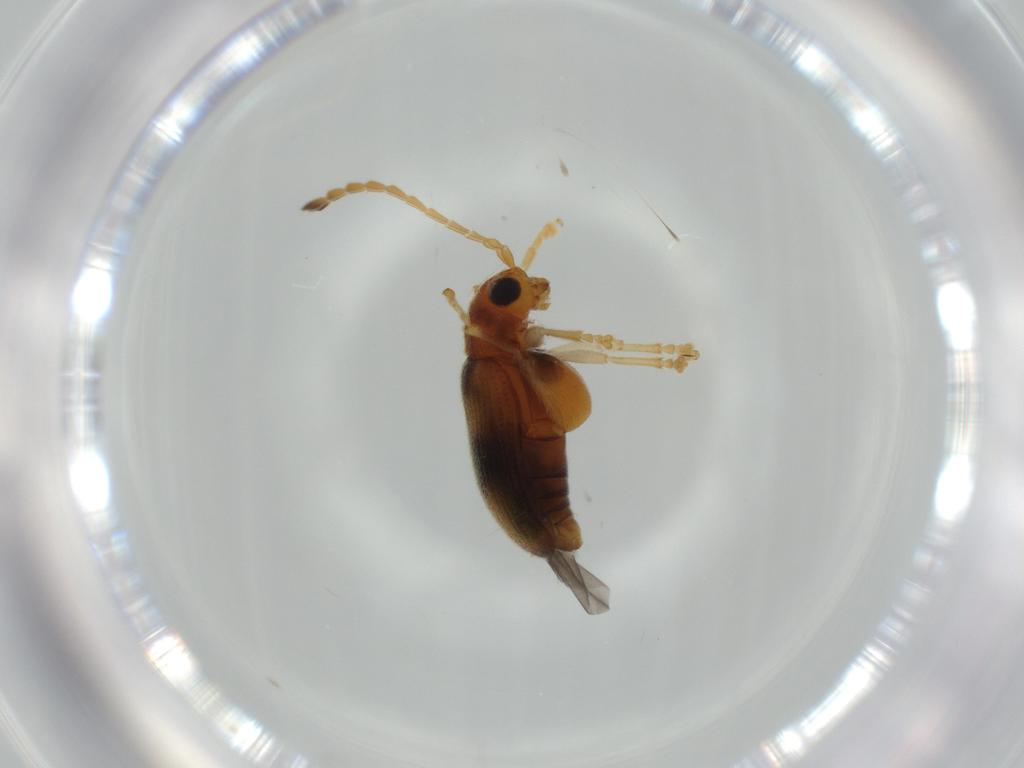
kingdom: Animalia
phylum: Arthropoda
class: Insecta
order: Coleoptera
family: Chrysomelidae
